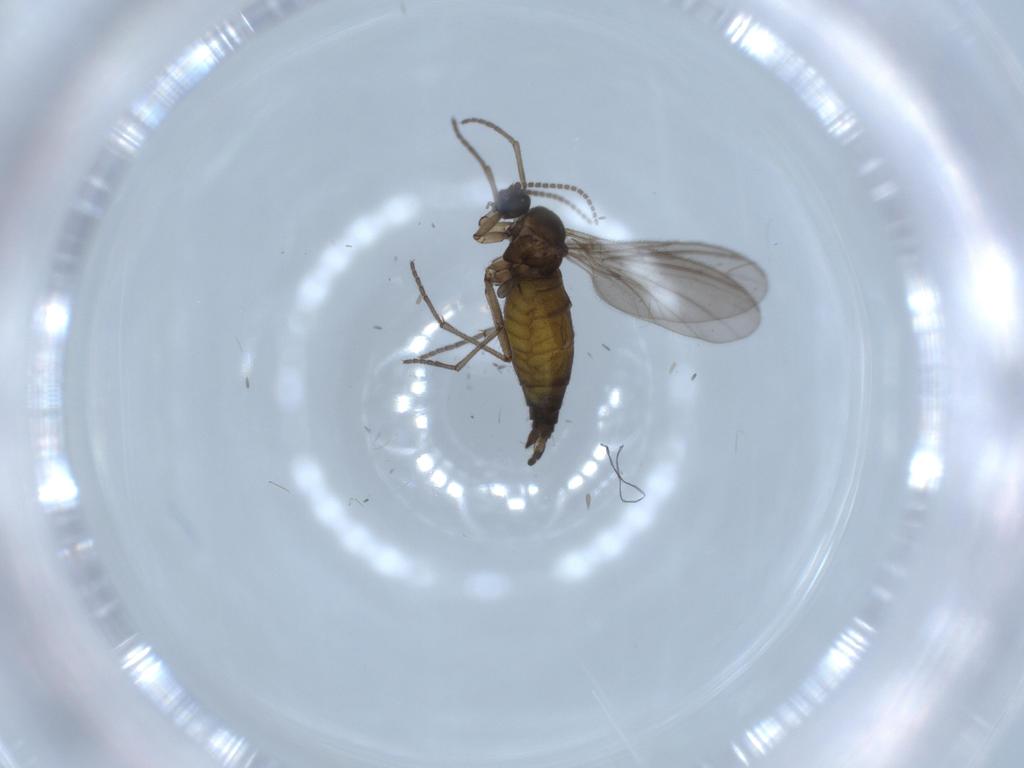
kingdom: Animalia
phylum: Arthropoda
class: Insecta
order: Diptera
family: Sciaridae
